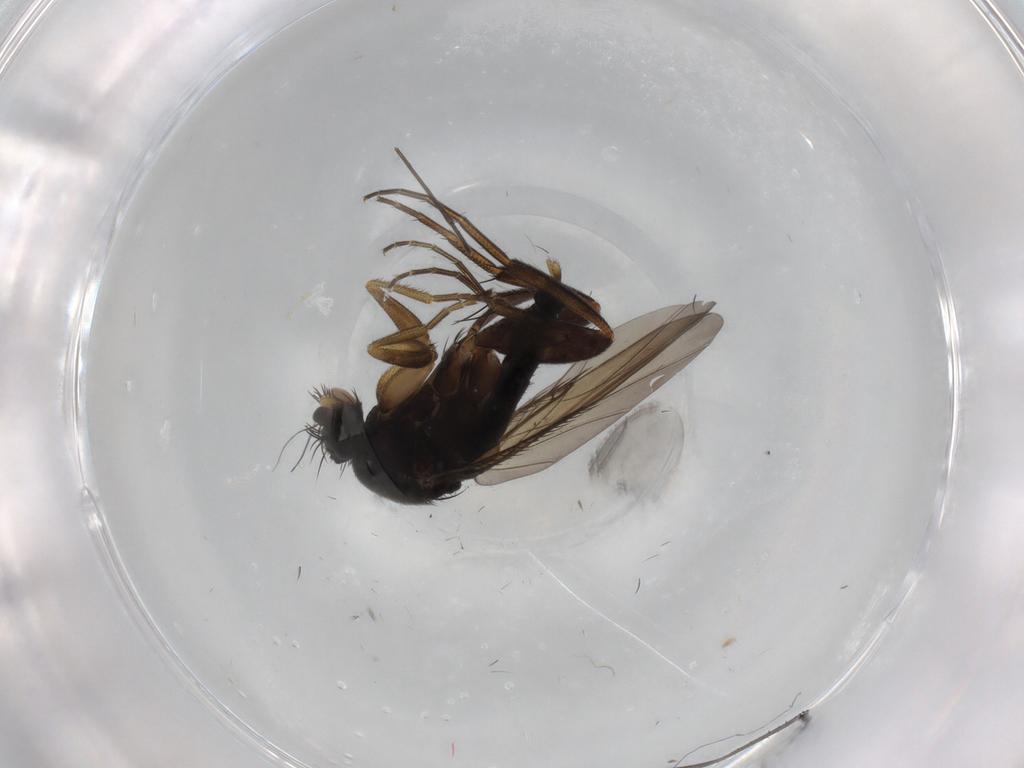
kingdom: Animalia
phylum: Arthropoda
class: Insecta
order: Diptera
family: Phoridae
